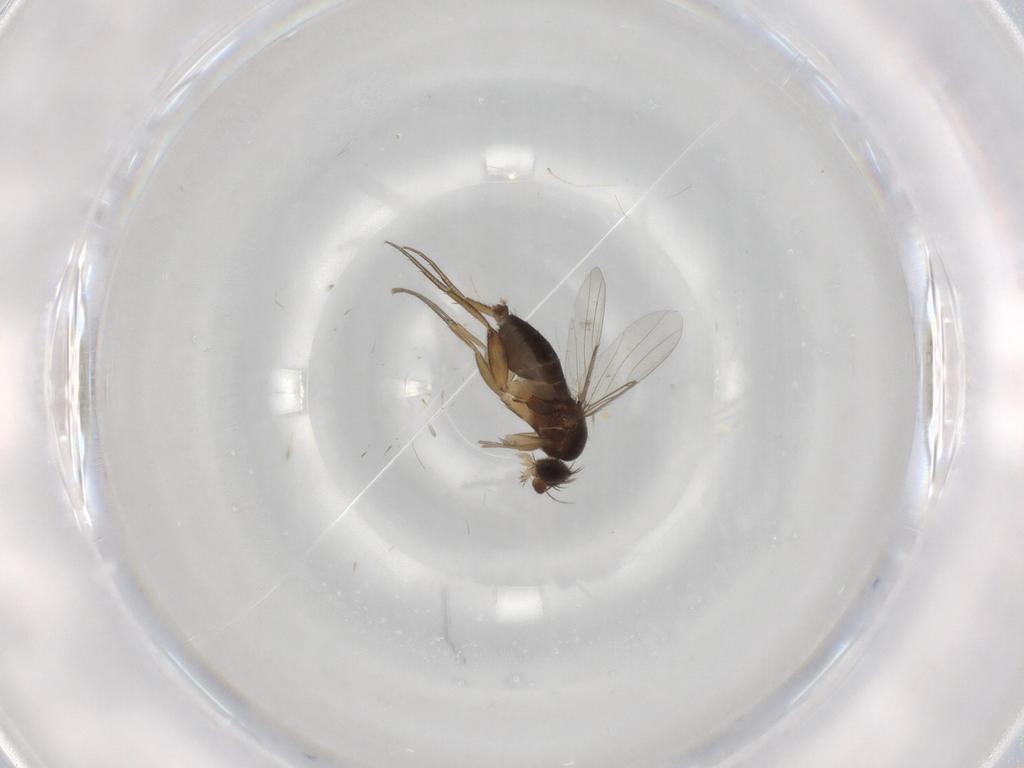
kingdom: Animalia
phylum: Arthropoda
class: Insecta
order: Diptera
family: Phoridae
